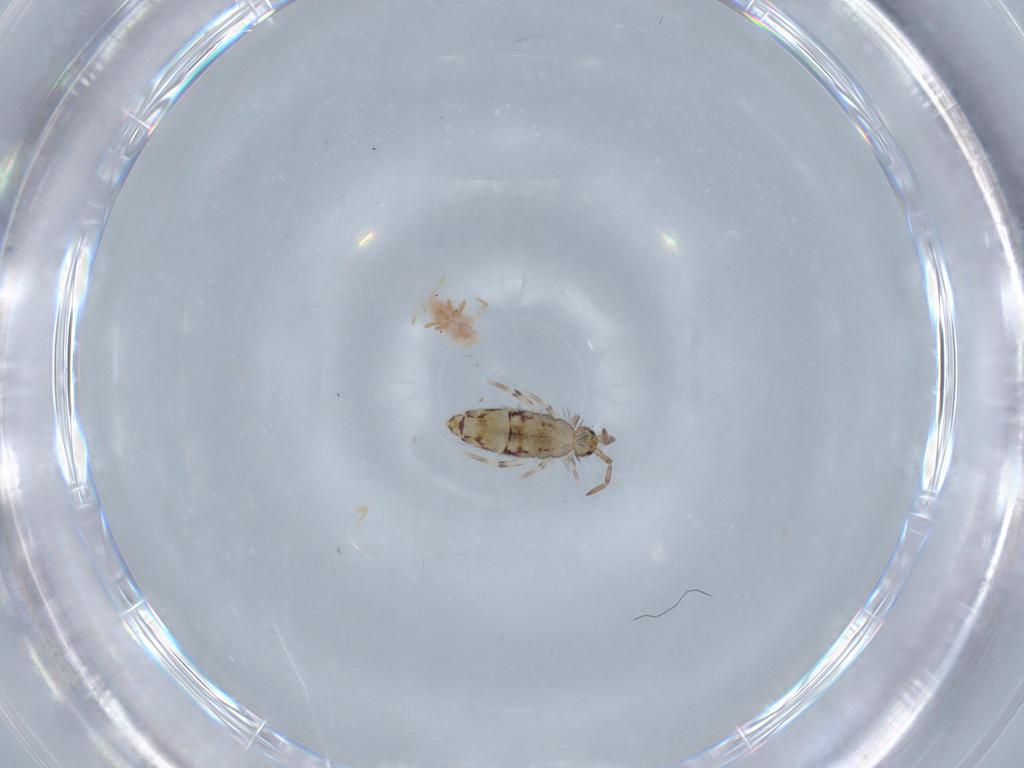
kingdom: Animalia
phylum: Arthropoda
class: Collembola
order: Entomobryomorpha
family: Entomobryidae
